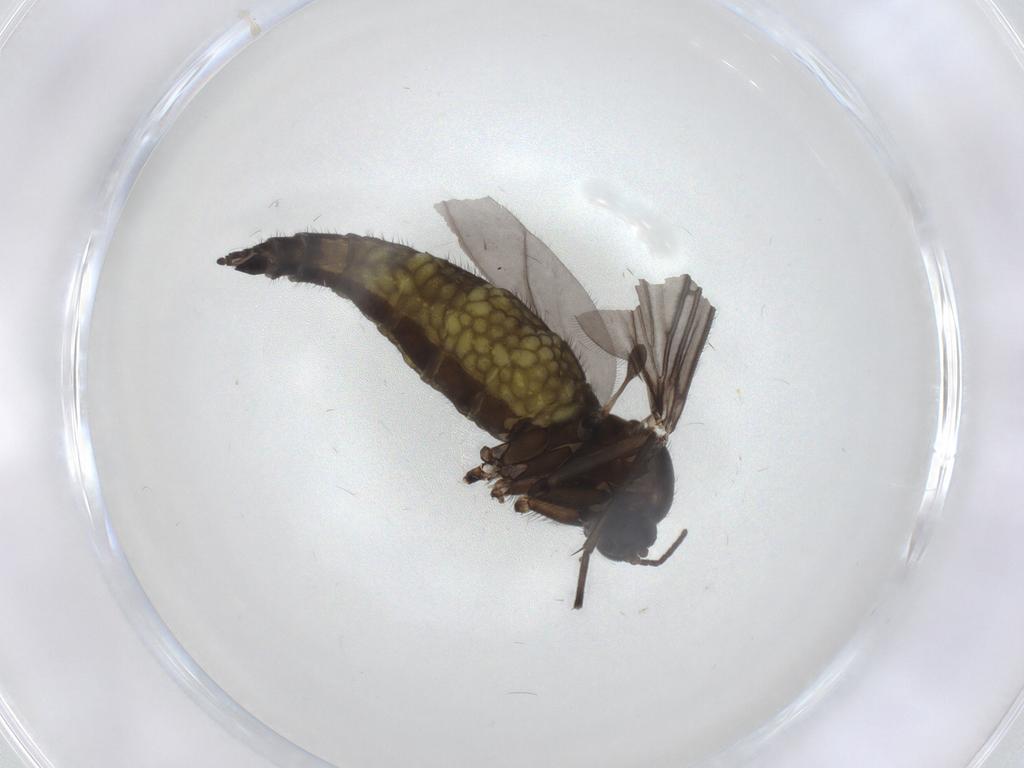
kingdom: Animalia
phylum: Arthropoda
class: Insecta
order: Diptera
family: Sciaridae
